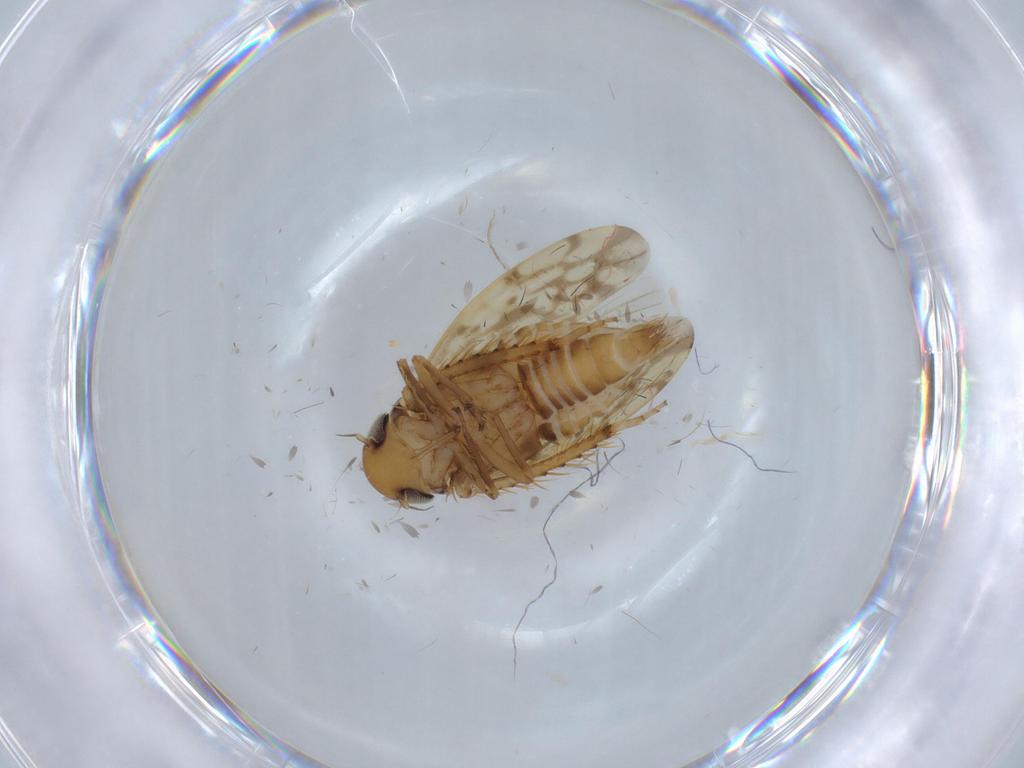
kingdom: Animalia
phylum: Arthropoda
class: Insecta
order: Hemiptera
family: Cicadellidae
